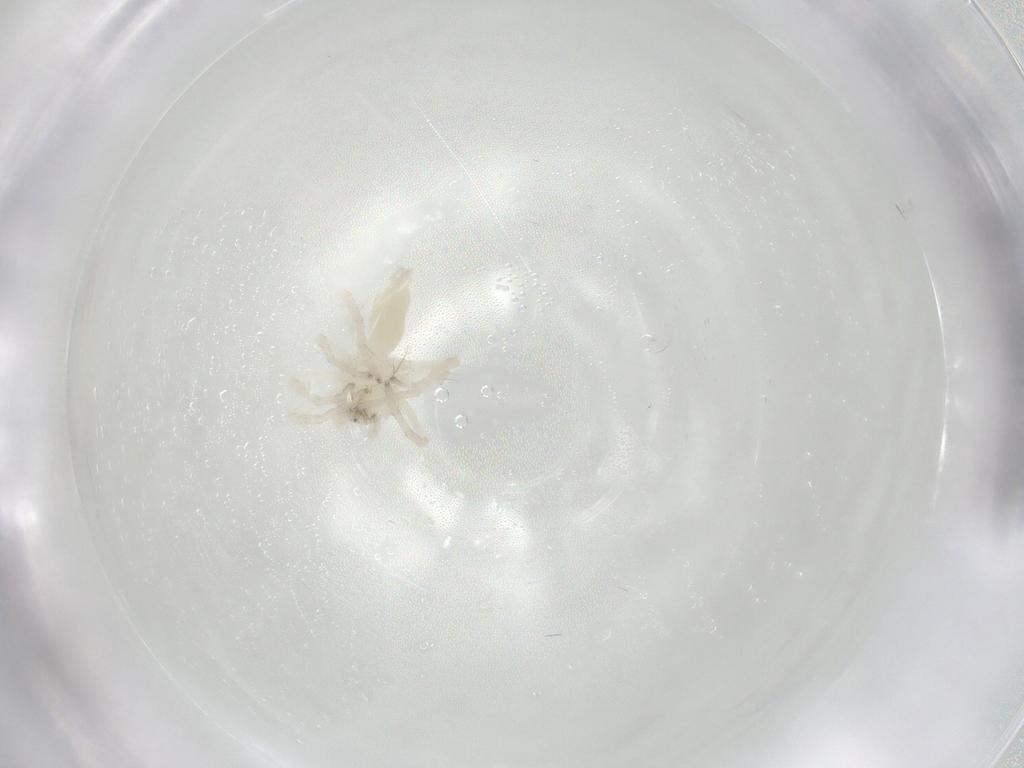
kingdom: Animalia
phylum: Arthropoda
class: Arachnida
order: Araneae
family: Anyphaenidae
